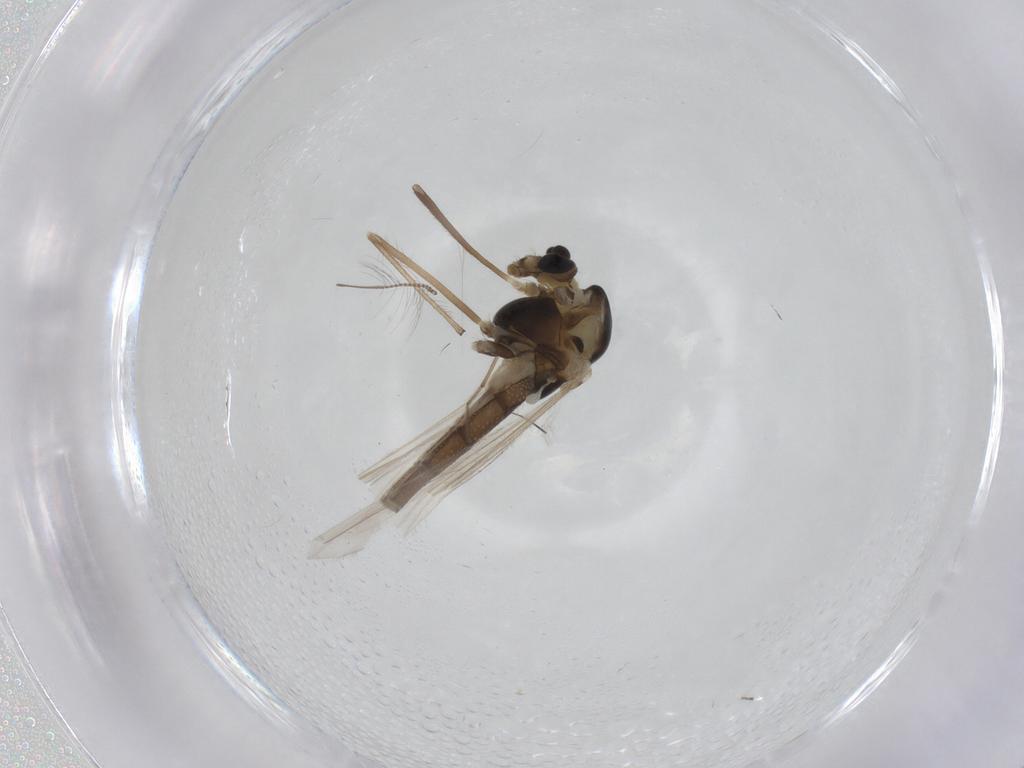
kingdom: Animalia
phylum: Arthropoda
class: Insecta
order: Diptera
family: Chironomidae
